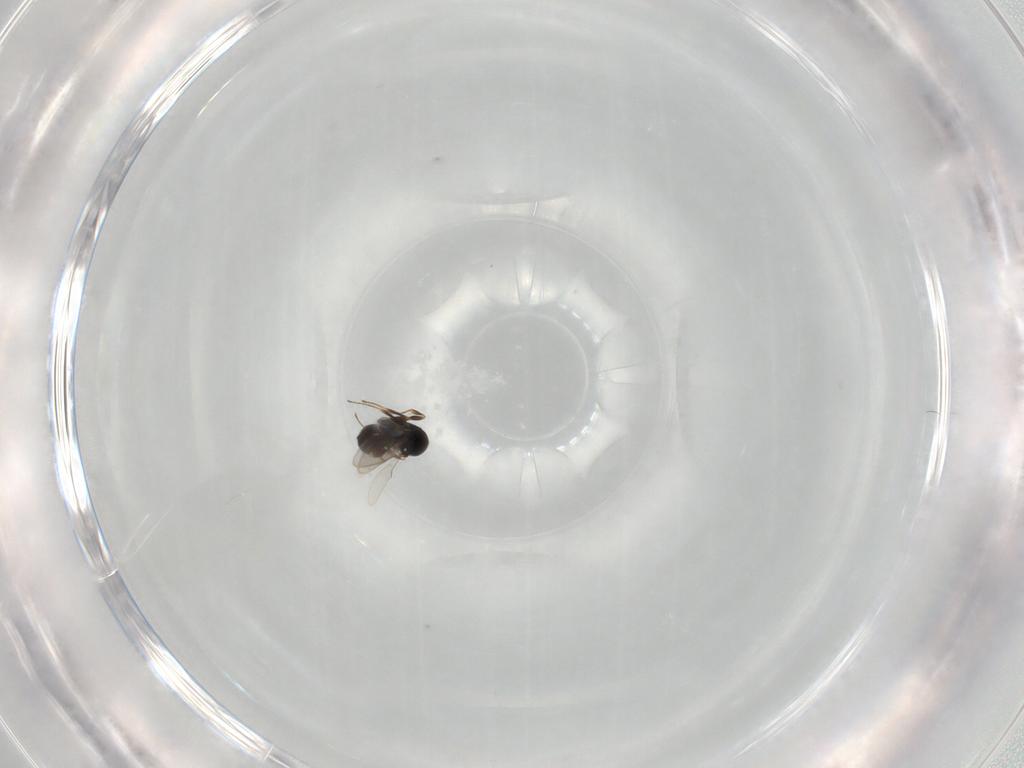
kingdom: Animalia
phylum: Arthropoda
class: Insecta
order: Hymenoptera
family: Scelionidae
